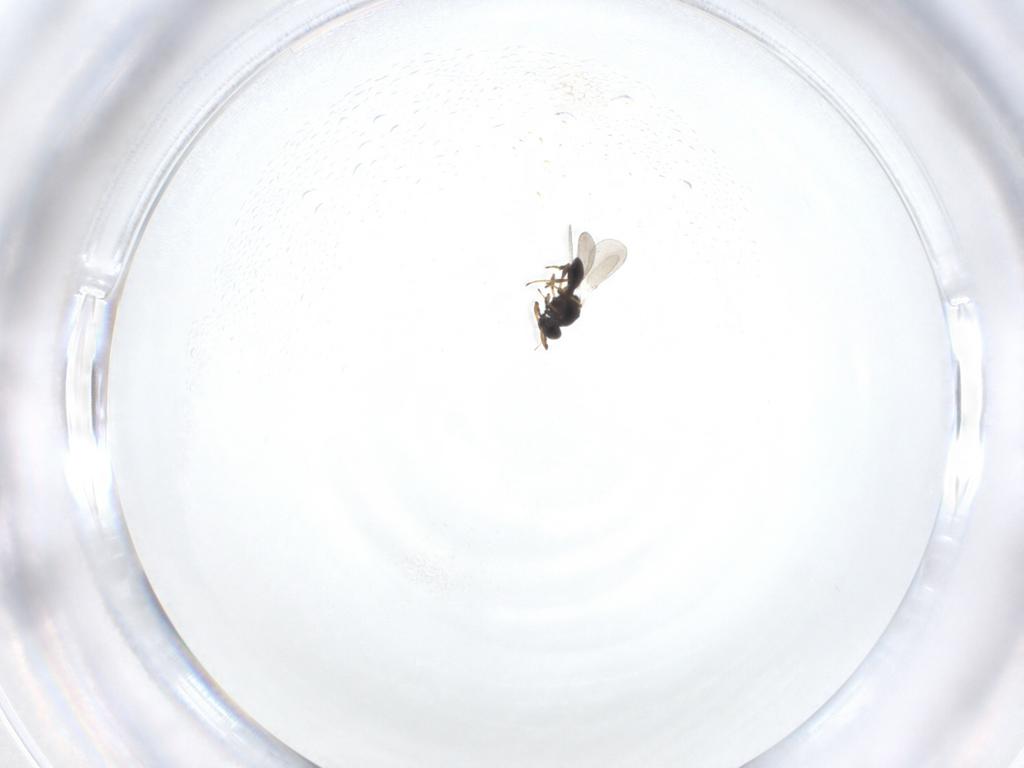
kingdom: Animalia
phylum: Arthropoda
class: Insecta
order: Hymenoptera
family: Platygastridae
